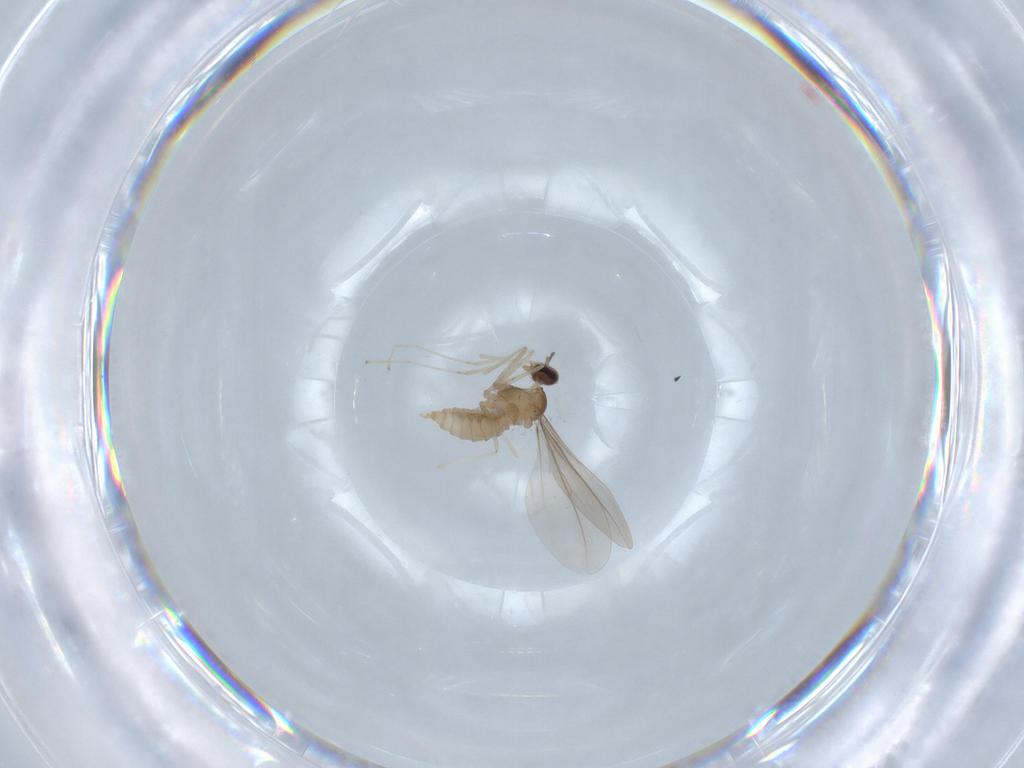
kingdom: Animalia
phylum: Arthropoda
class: Insecta
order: Diptera
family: Cecidomyiidae
